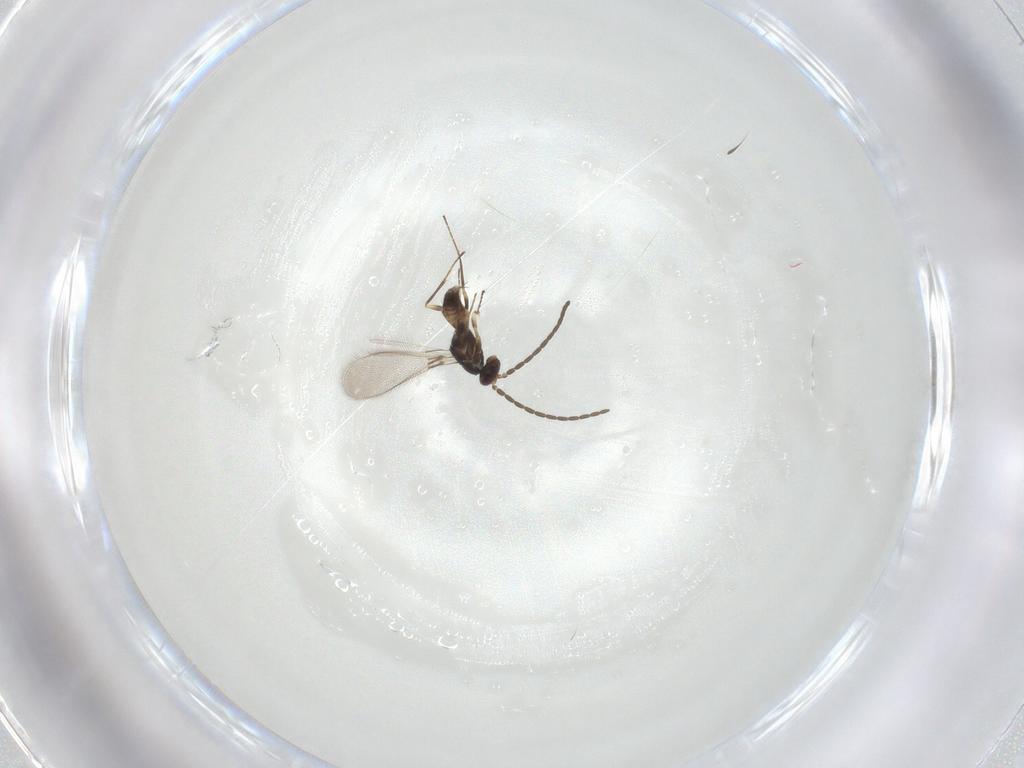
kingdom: Animalia
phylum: Arthropoda
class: Insecta
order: Hymenoptera
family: Mymaridae
